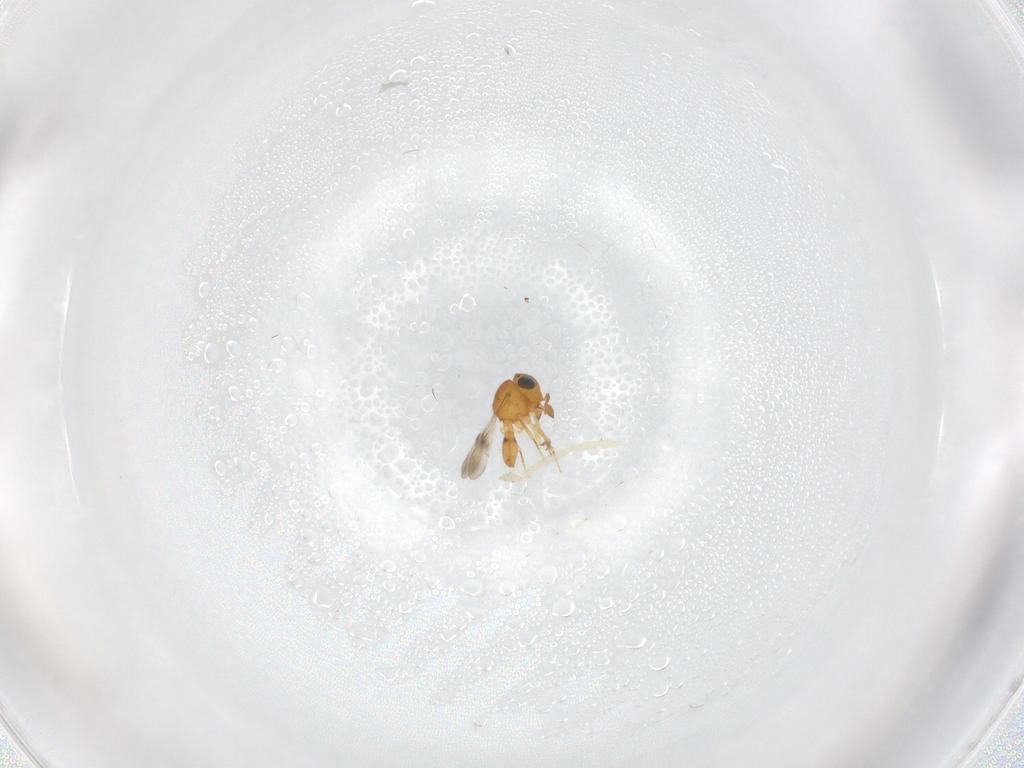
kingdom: Animalia
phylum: Arthropoda
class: Insecta
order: Hymenoptera
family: Scelionidae
